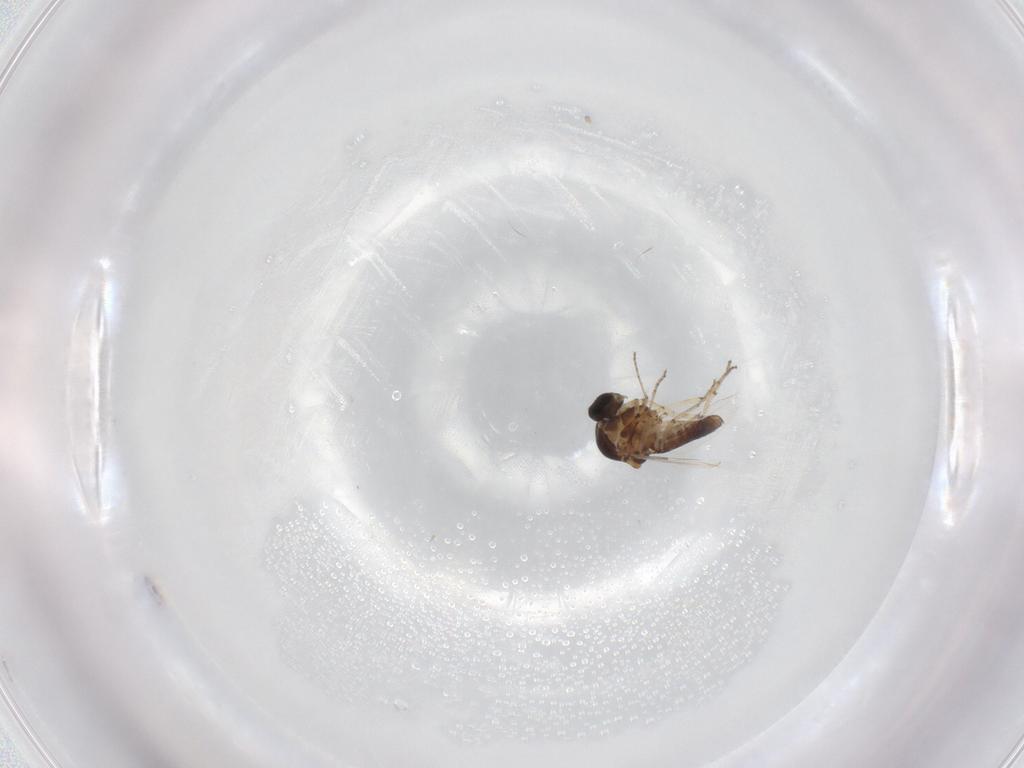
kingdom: Animalia
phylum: Arthropoda
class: Insecta
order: Diptera
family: Ceratopogonidae
